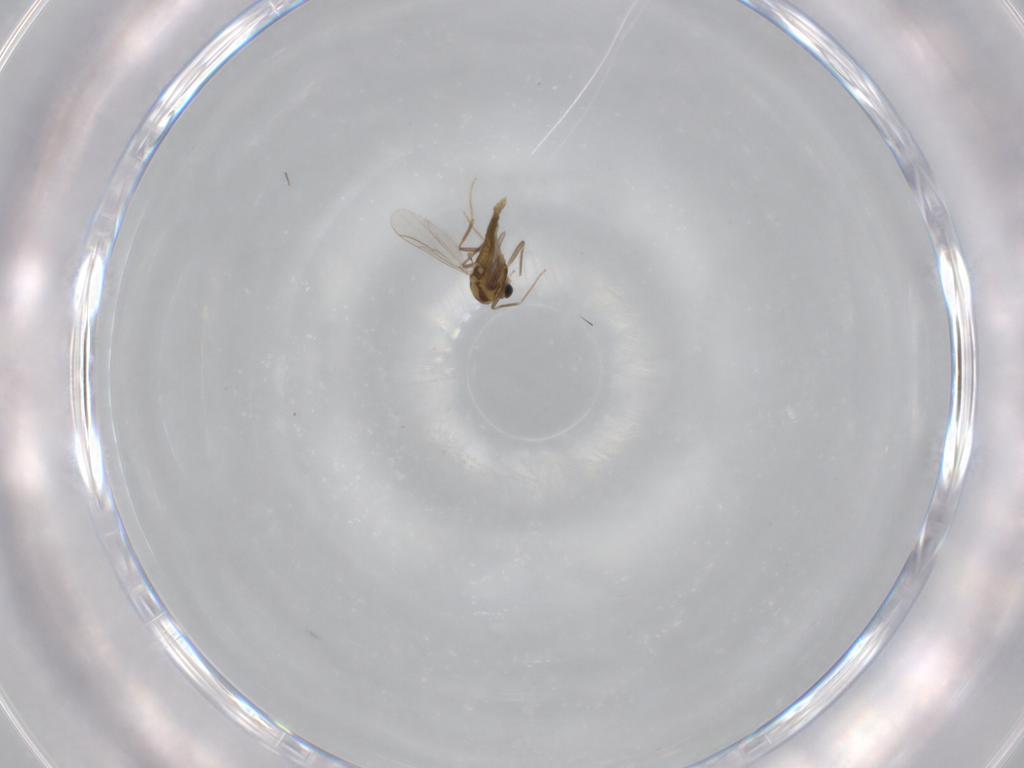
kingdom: Animalia
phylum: Arthropoda
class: Insecta
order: Diptera
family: Chironomidae
